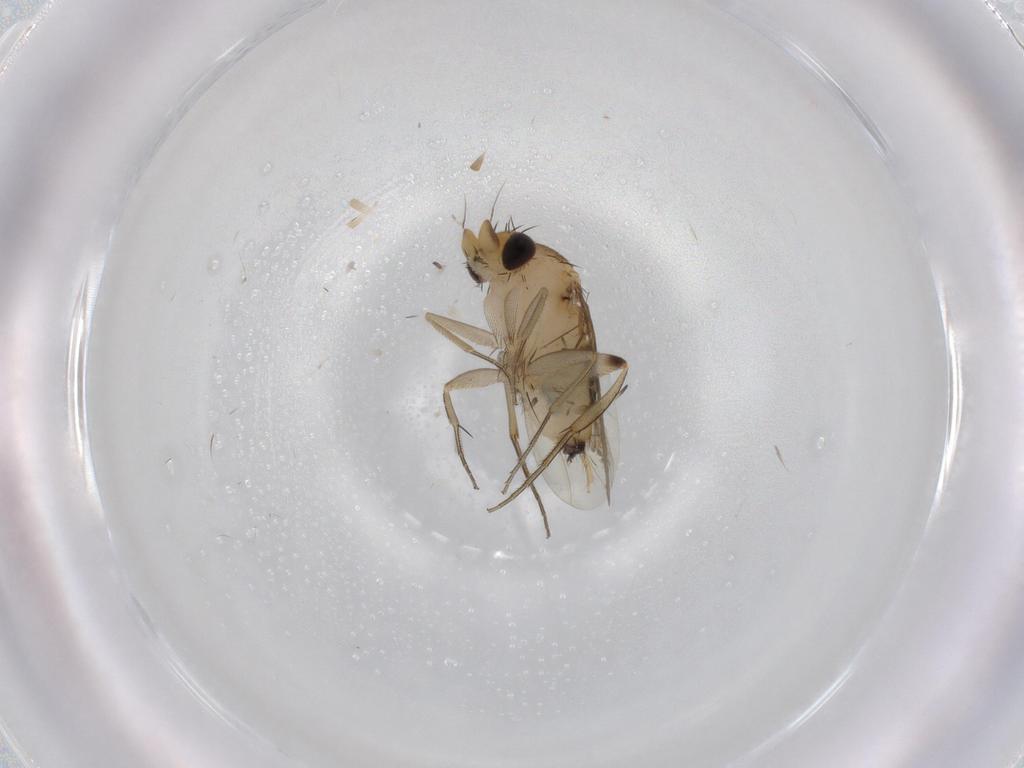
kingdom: Animalia
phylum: Arthropoda
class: Insecta
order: Diptera
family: Phoridae
